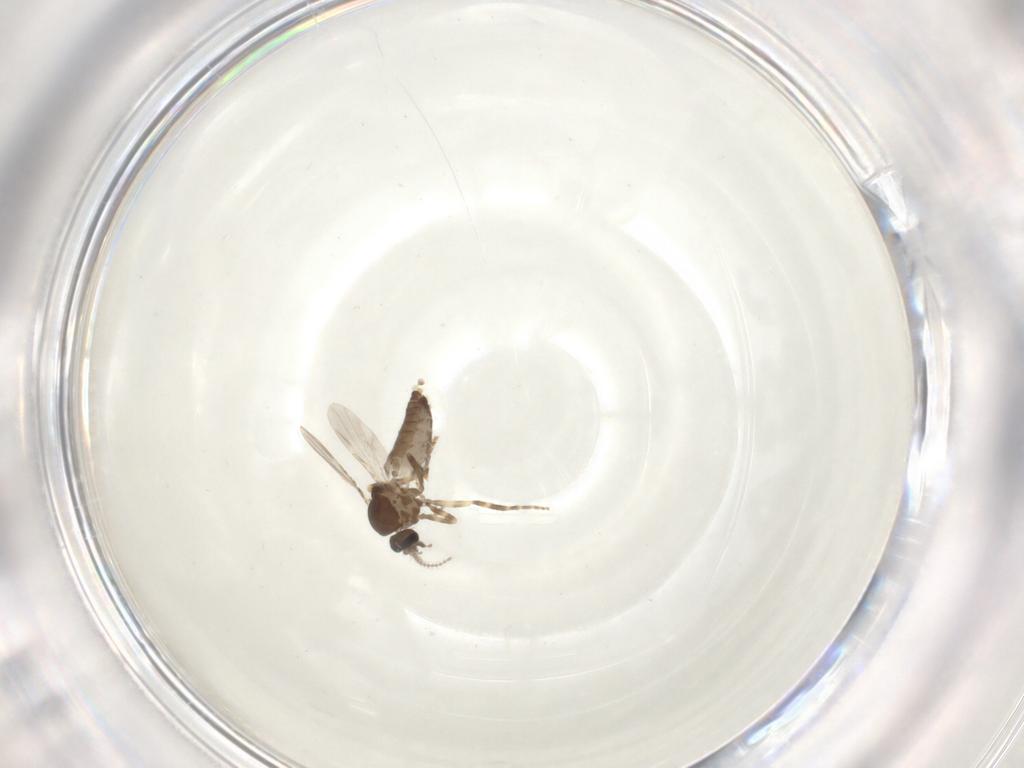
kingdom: Animalia
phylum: Arthropoda
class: Insecta
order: Diptera
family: Ceratopogonidae
